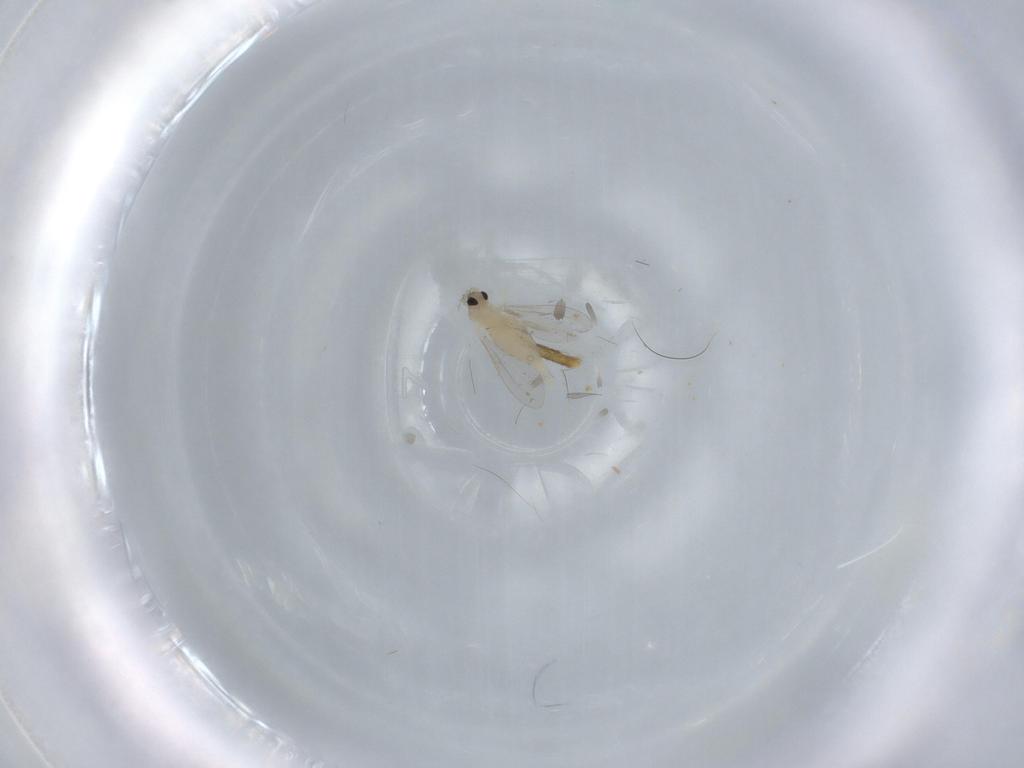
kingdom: Animalia
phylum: Arthropoda
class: Insecta
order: Diptera
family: Cecidomyiidae
